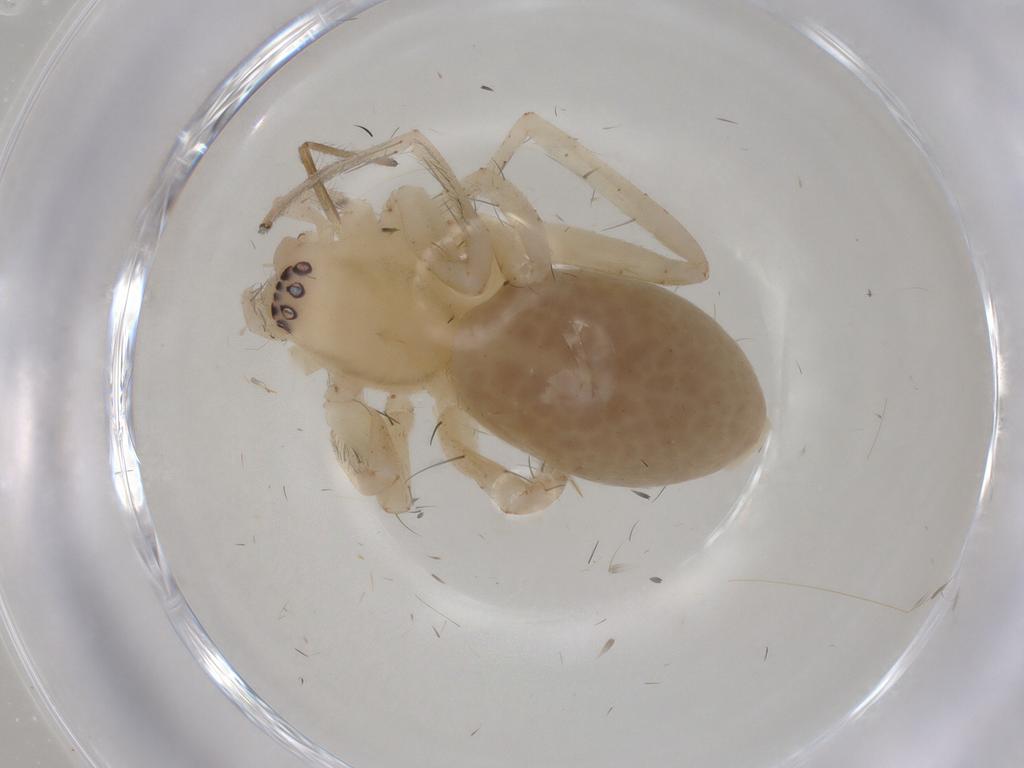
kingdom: Animalia
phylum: Arthropoda
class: Arachnida
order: Araneae
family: Anyphaenidae
